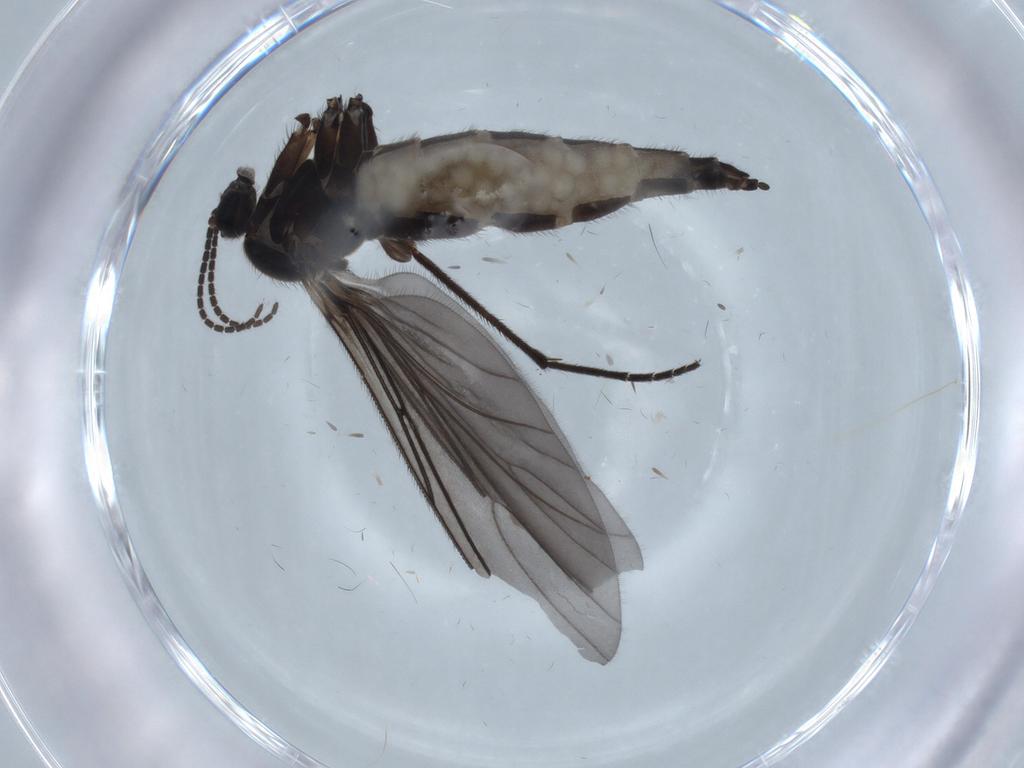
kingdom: Animalia
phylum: Arthropoda
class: Insecta
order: Diptera
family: Sciaridae
